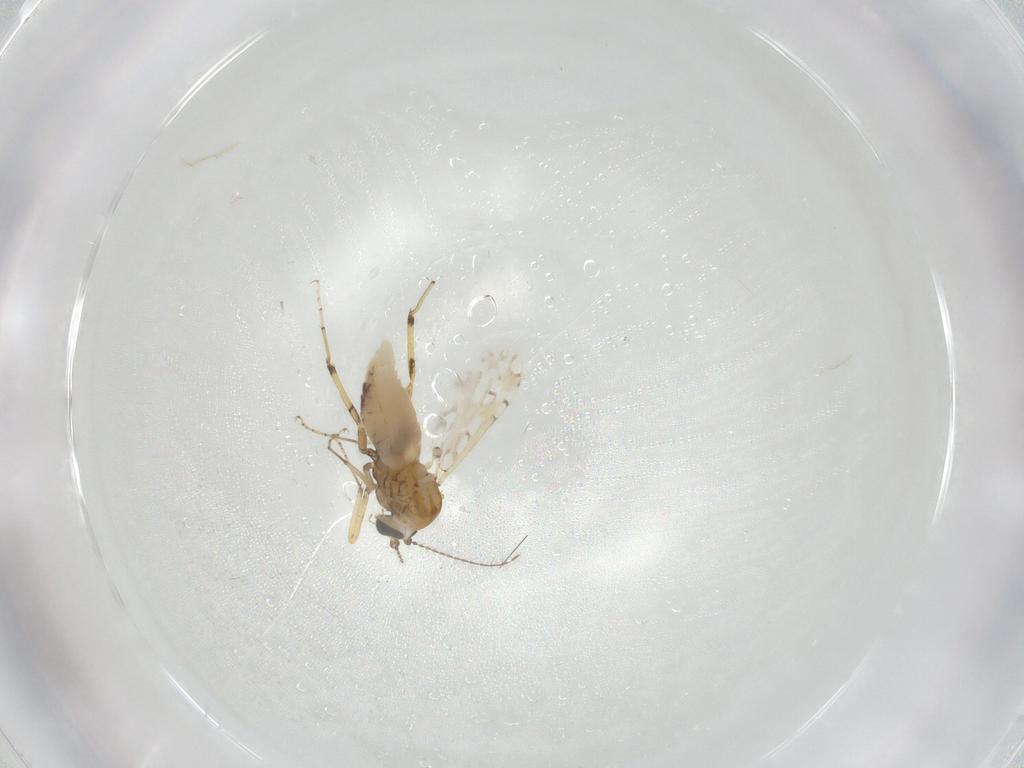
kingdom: Animalia
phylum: Arthropoda
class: Insecta
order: Diptera
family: Ceratopogonidae
